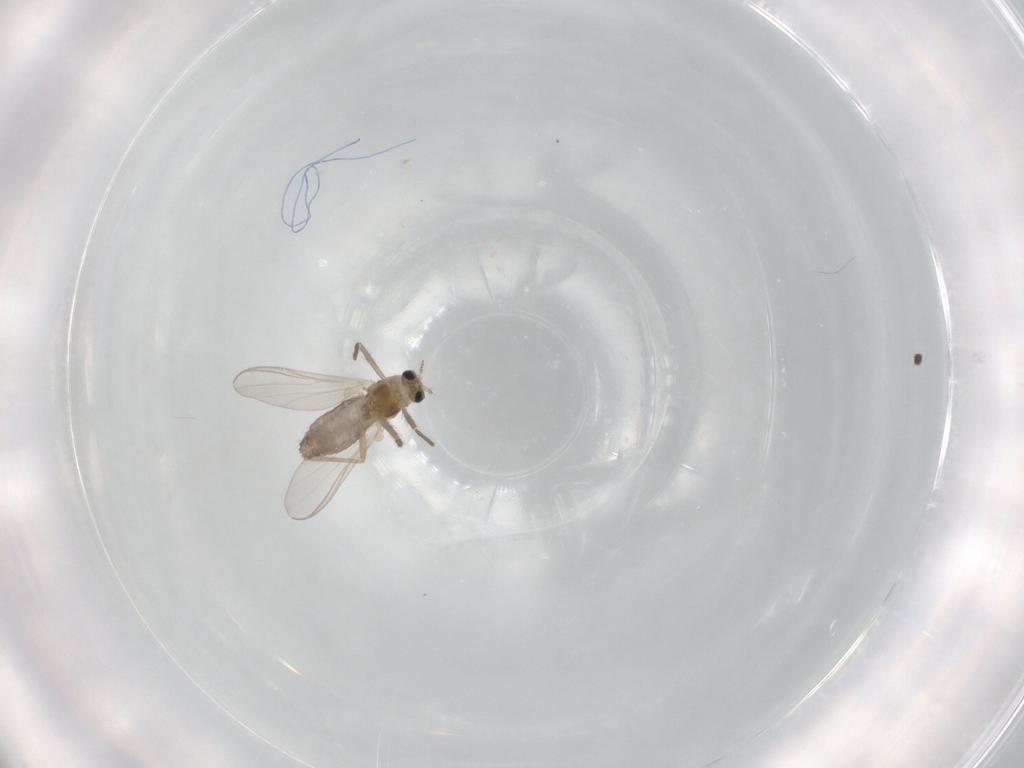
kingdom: Animalia
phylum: Arthropoda
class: Insecta
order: Diptera
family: Chironomidae
